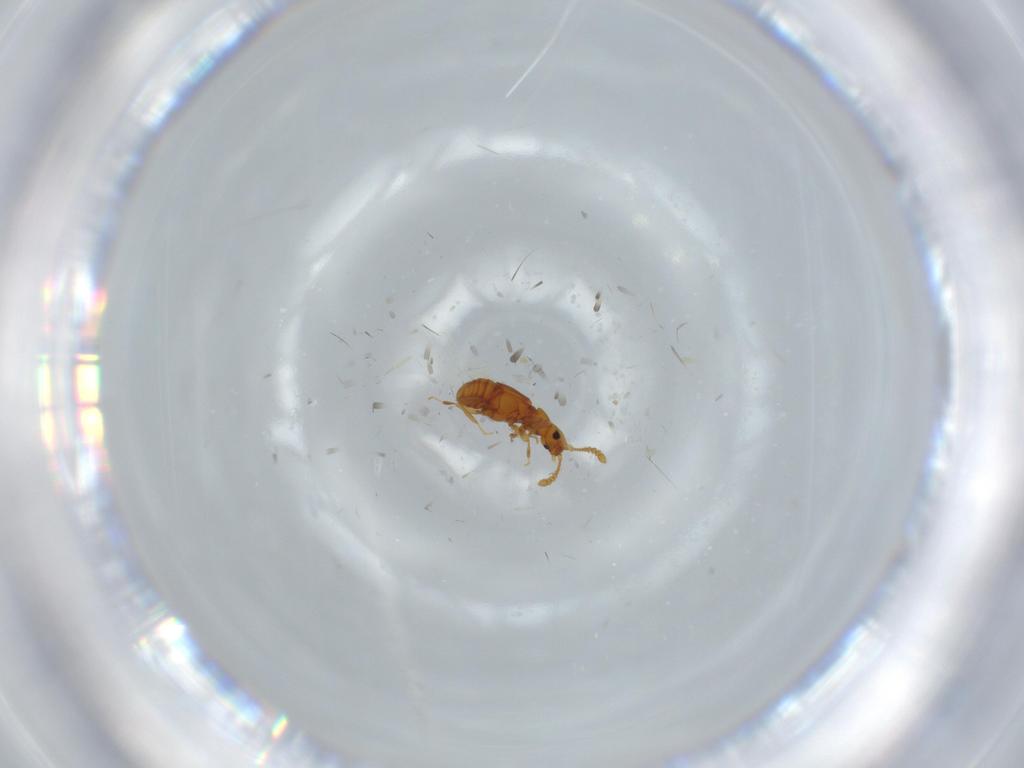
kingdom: Animalia
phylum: Arthropoda
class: Insecta
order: Coleoptera
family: Staphylinidae
